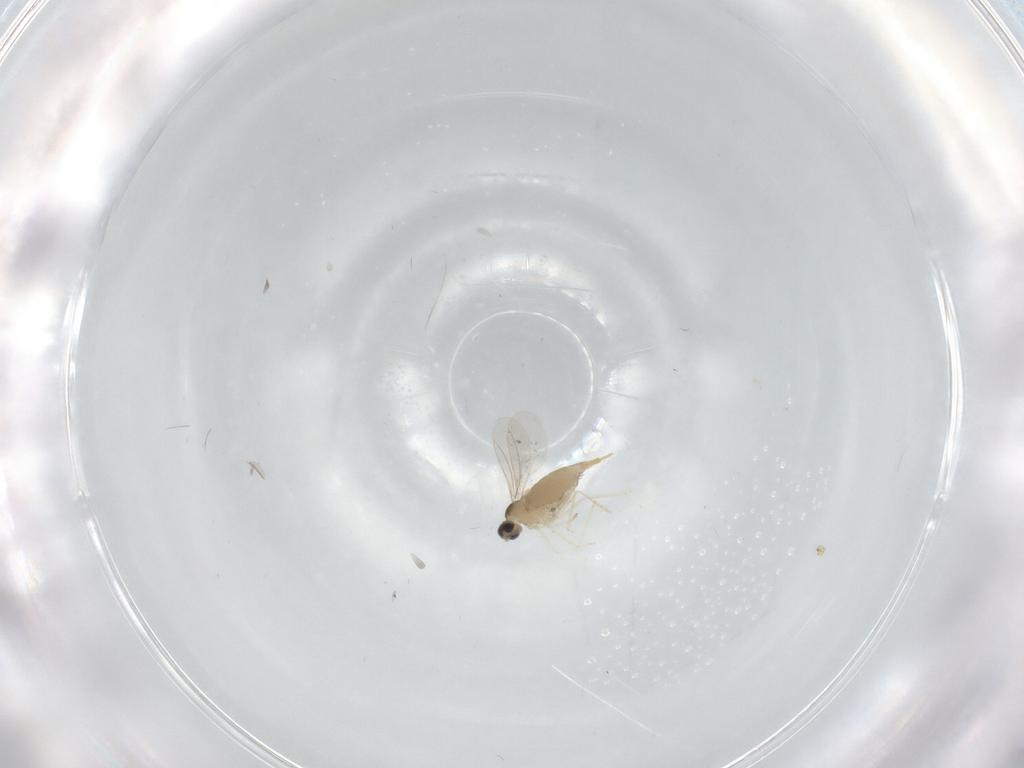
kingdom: Animalia
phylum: Arthropoda
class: Insecta
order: Diptera
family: Cecidomyiidae
